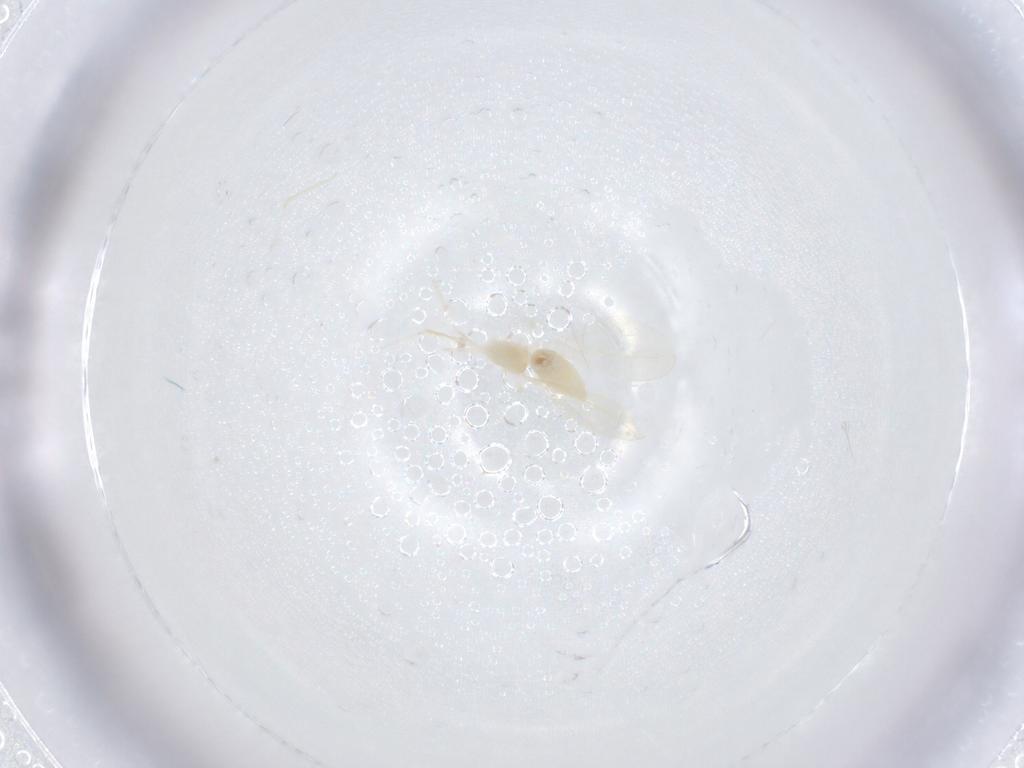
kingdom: Animalia
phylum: Arthropoda
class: Insecta
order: Diptera
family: Cecidomyiidae
